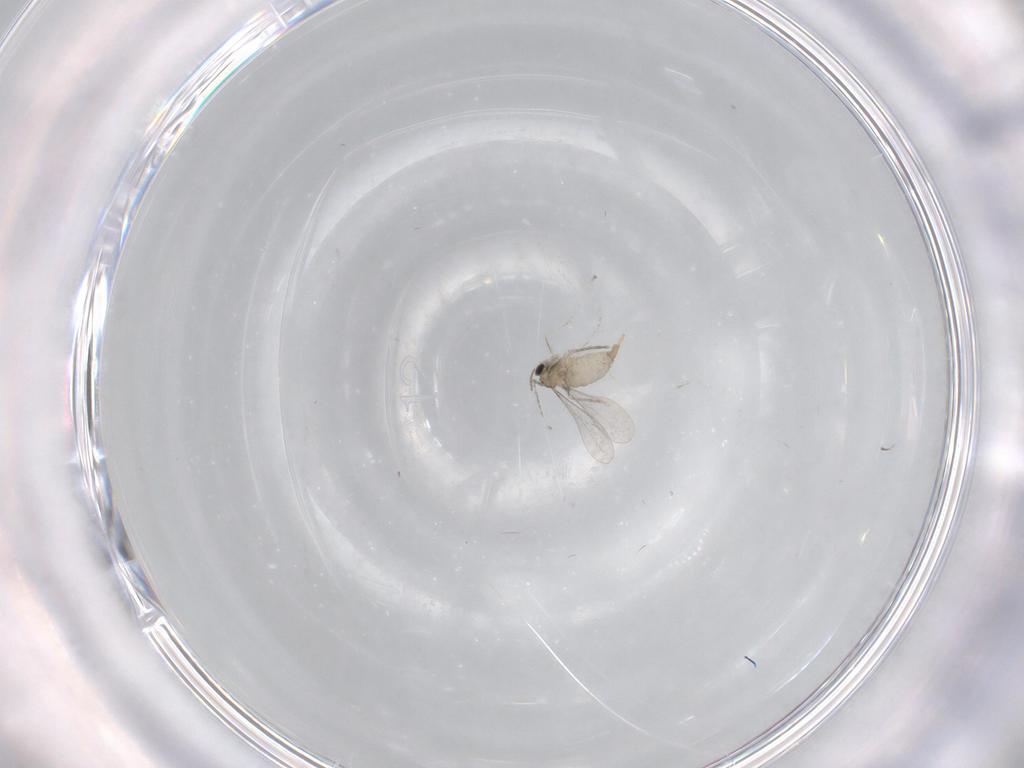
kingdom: Animalia
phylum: Arthropoda
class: Insecta
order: Diptera
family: Cecidomyiidae
